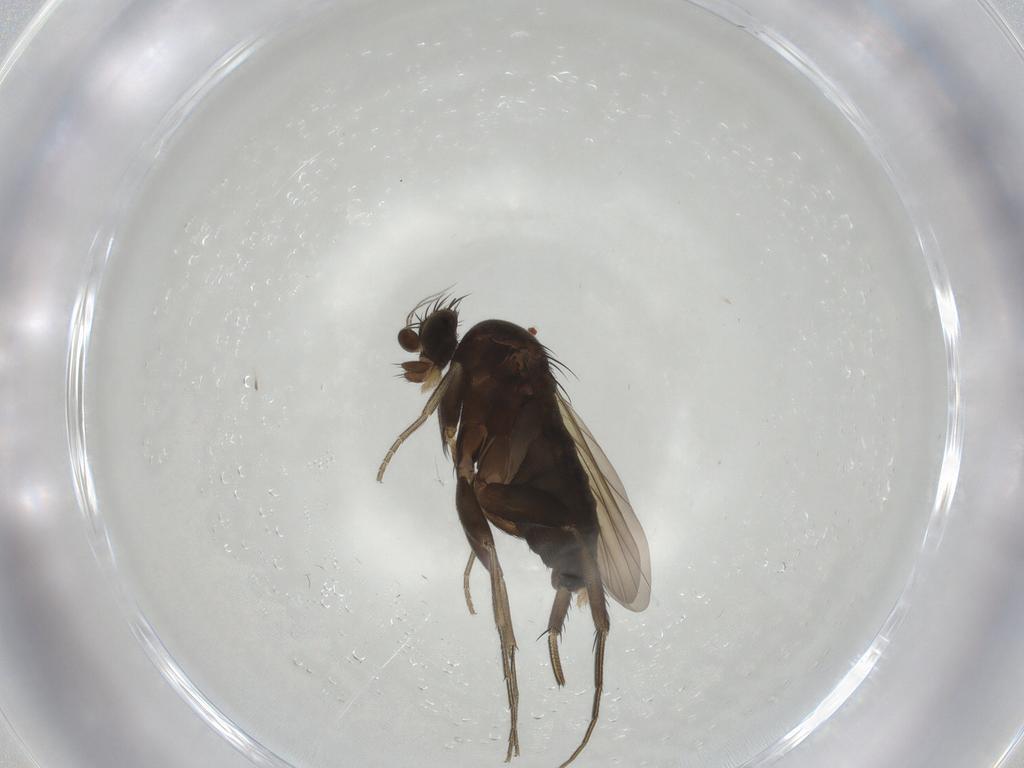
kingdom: Animalia
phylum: Arthropoda
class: Insecta
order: Diptera
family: Phoridae
